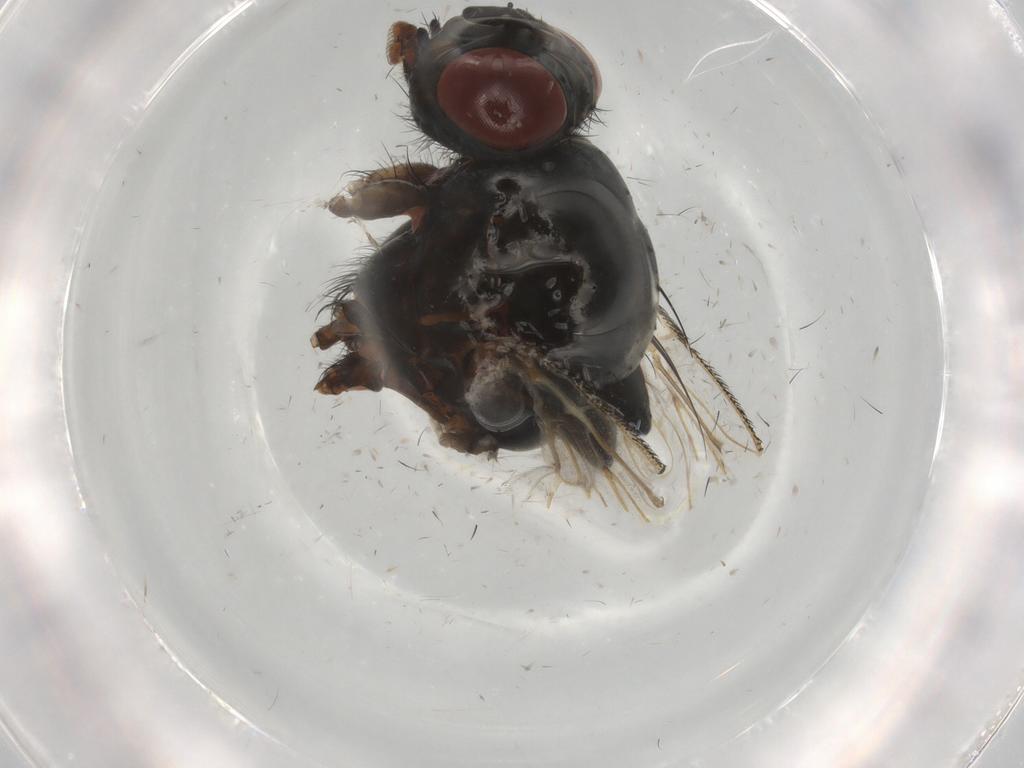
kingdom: Animalia
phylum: Arthropoda
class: Insecta
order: Diptera
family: Anthomyiidae
